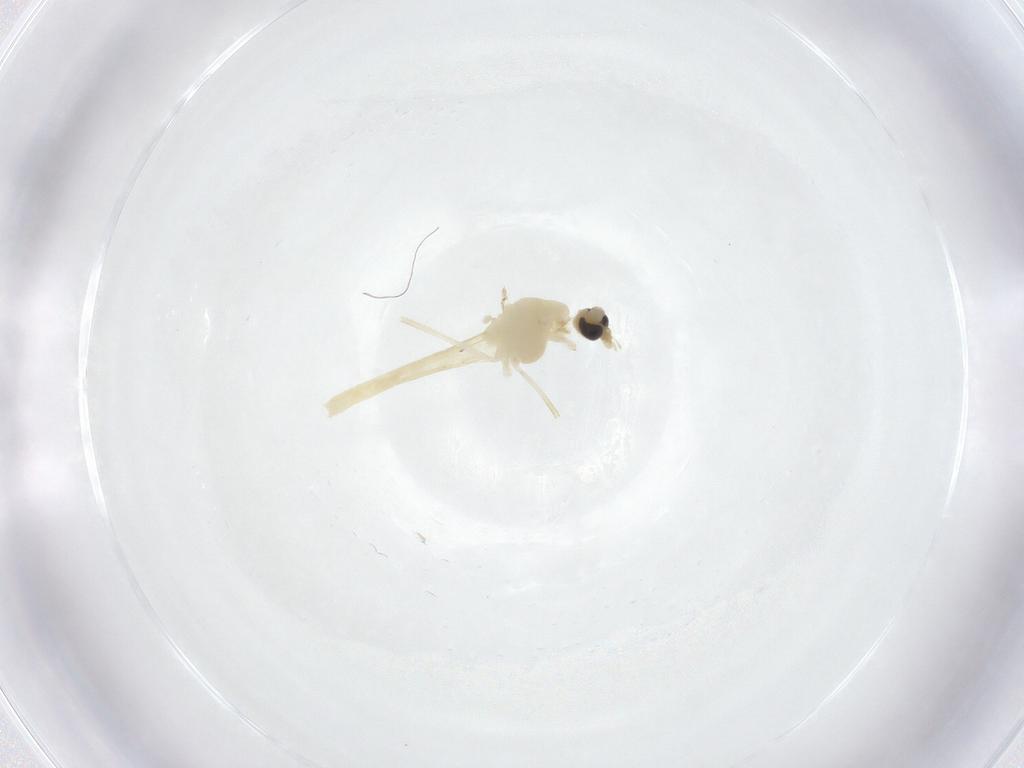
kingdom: Animalia
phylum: Arthropoda
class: Insecta
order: Diptera
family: Chironomidae
